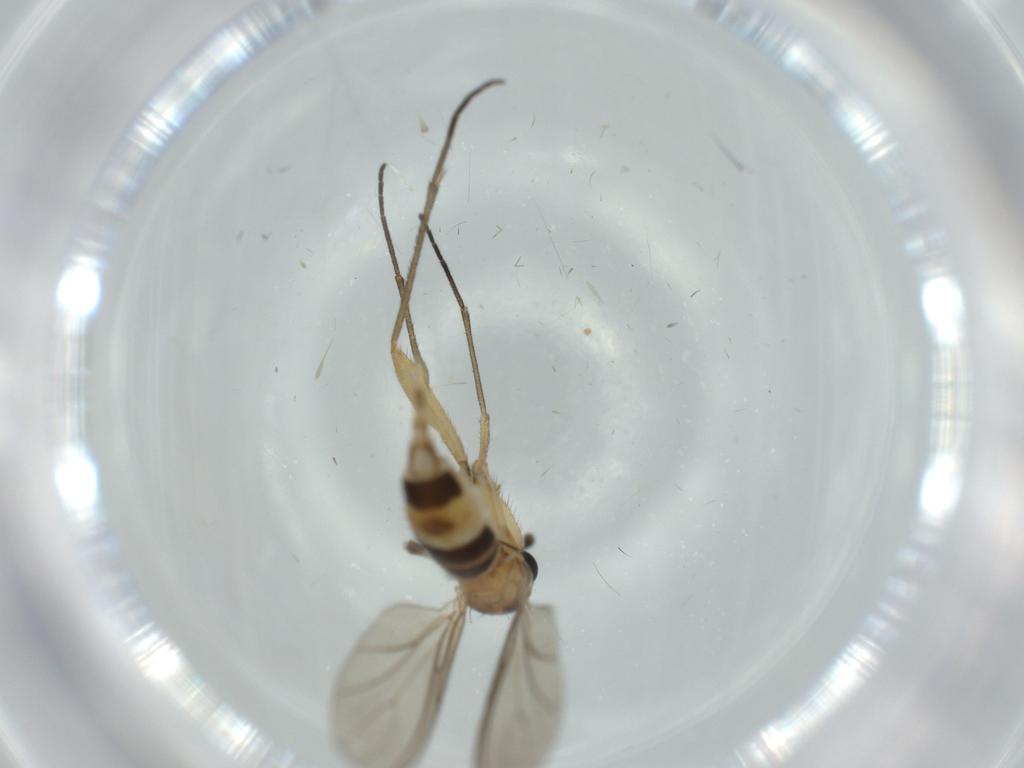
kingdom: Animalia
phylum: Arthropoda
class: Insecta
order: Diptera
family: Sciaridae
